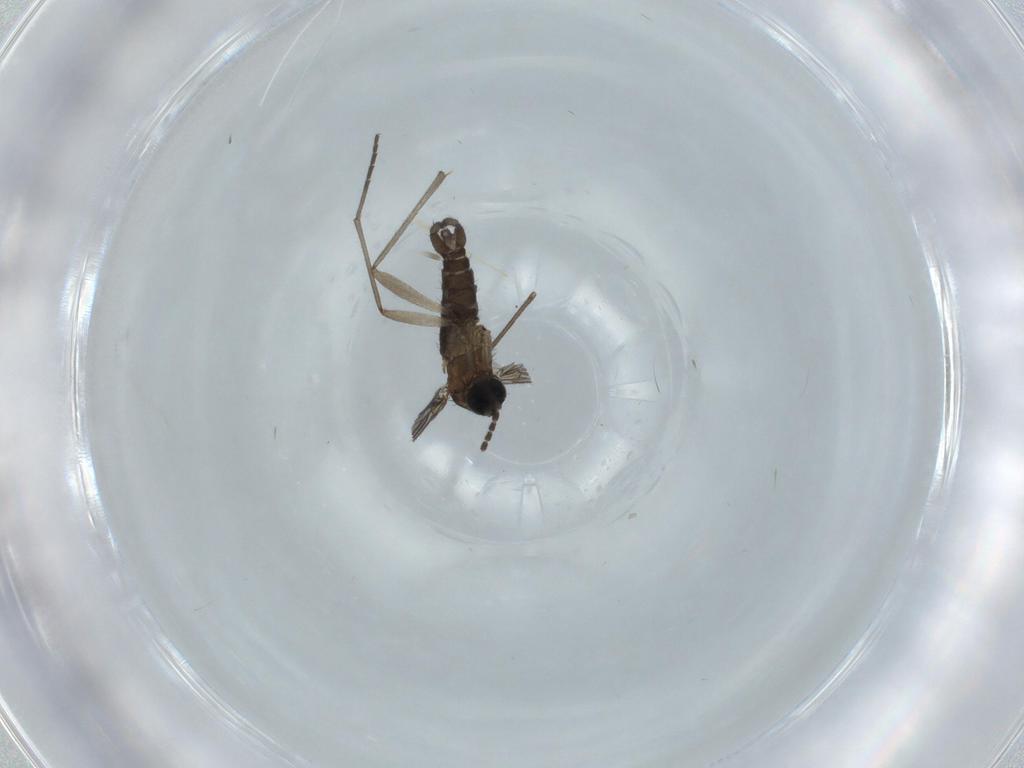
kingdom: Animalia
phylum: Arthropoda
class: Insecta
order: Diptera
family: Sciaridae
